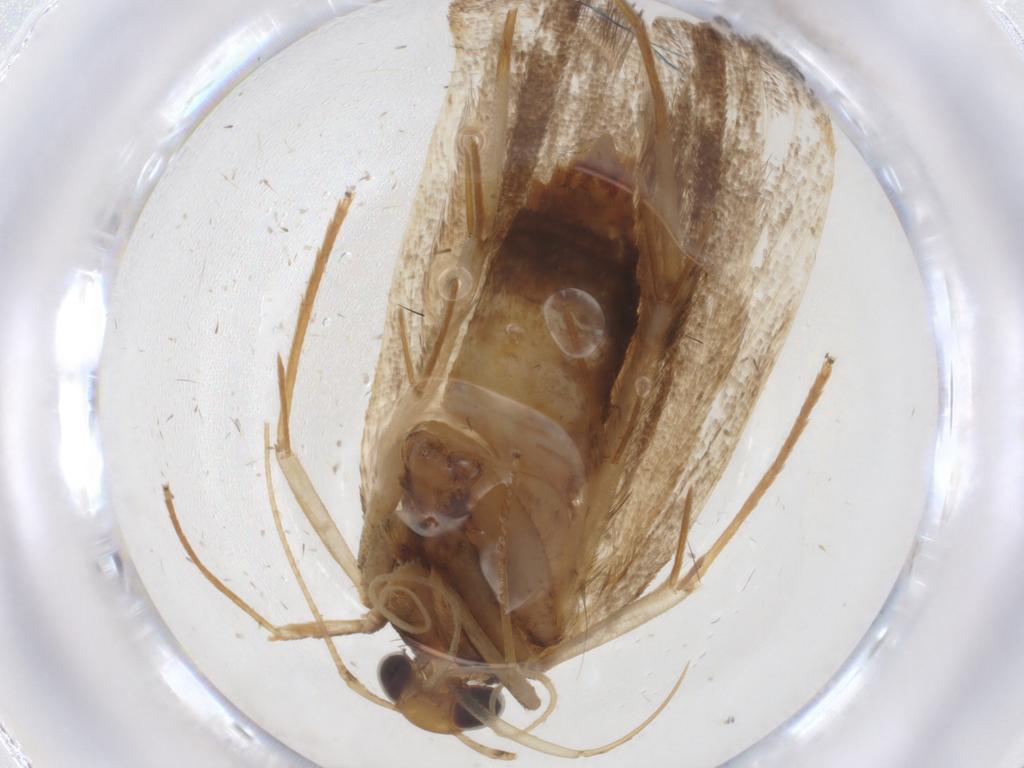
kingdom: Animalia
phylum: Arthropoda
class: Insecta
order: Lepidoptera
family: Lecithoceridae
